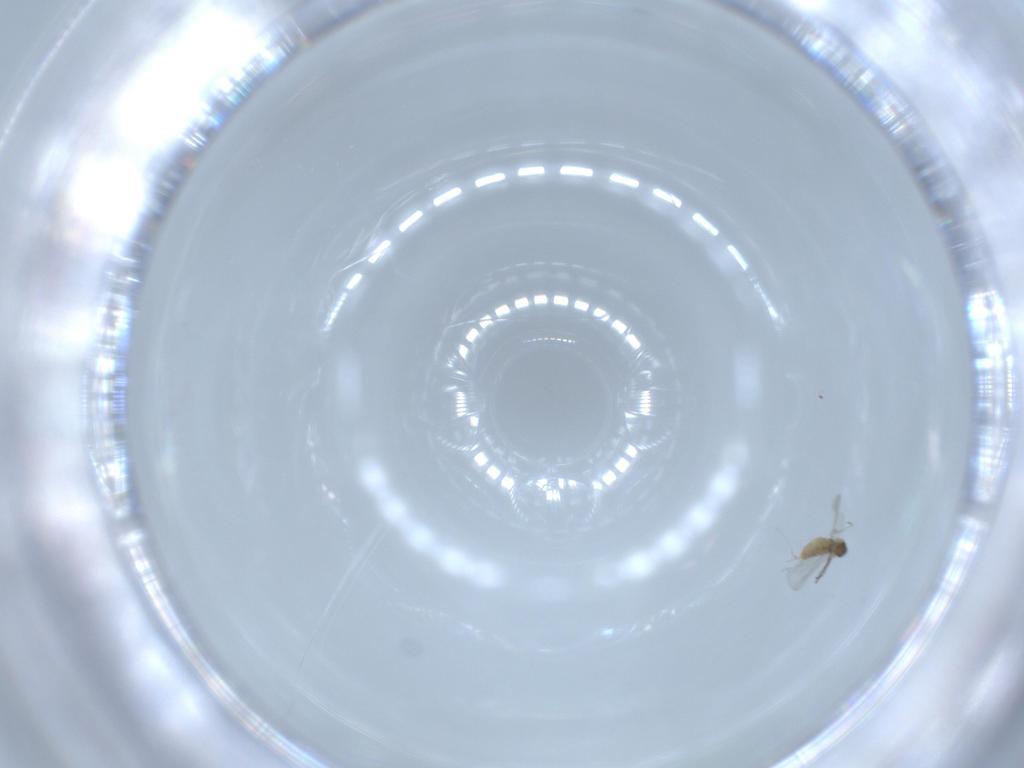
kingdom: Animalia
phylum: Arthropoda
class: Insecta
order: Diptera
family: Cecidomyiidae
